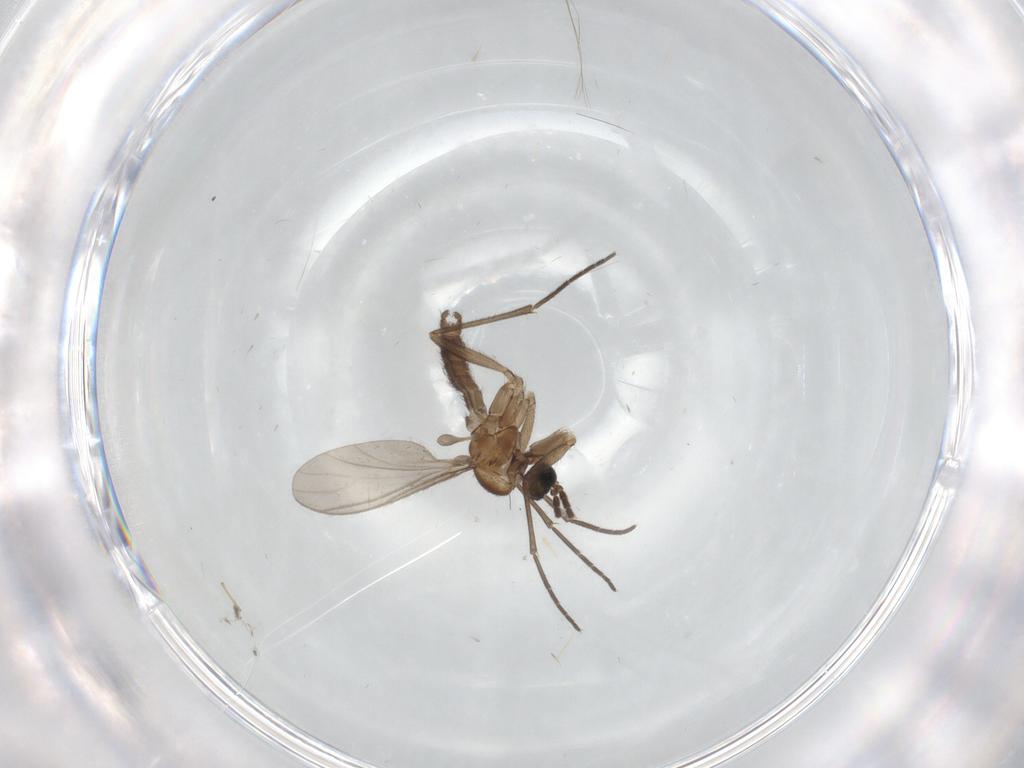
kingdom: Animalia
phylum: Arthropoda
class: Insecta
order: Diptera
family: Sciaridae
